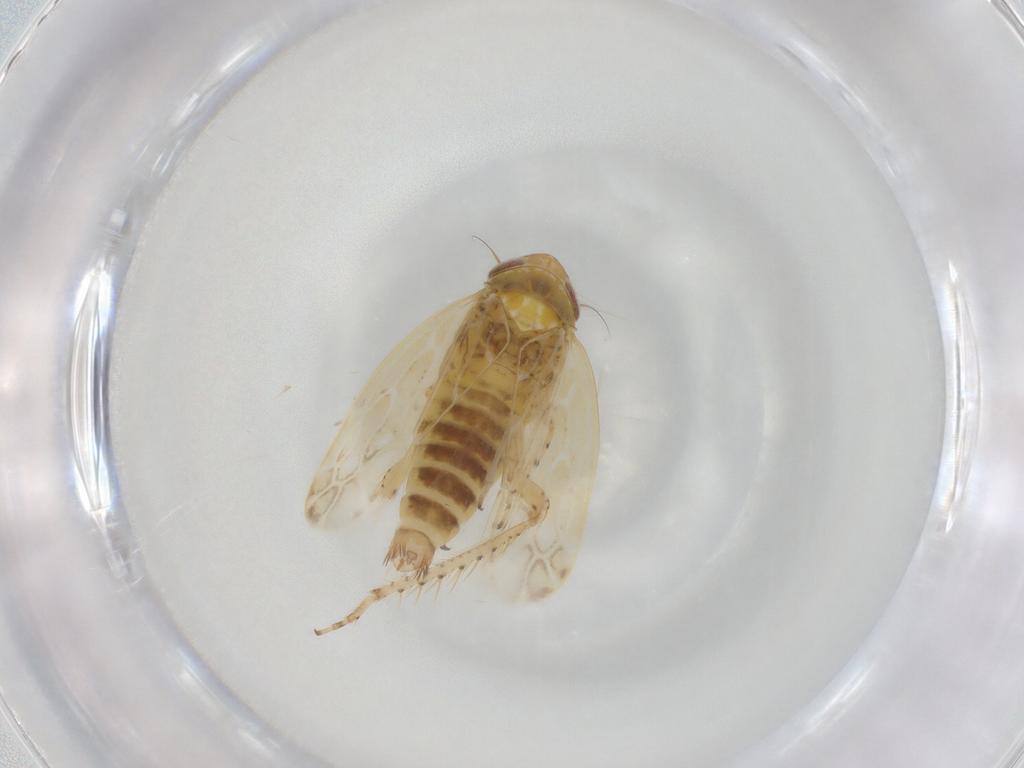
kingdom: Animalia
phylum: Arthropoda
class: Insecta
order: Hemiptera
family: Cicadellidae
